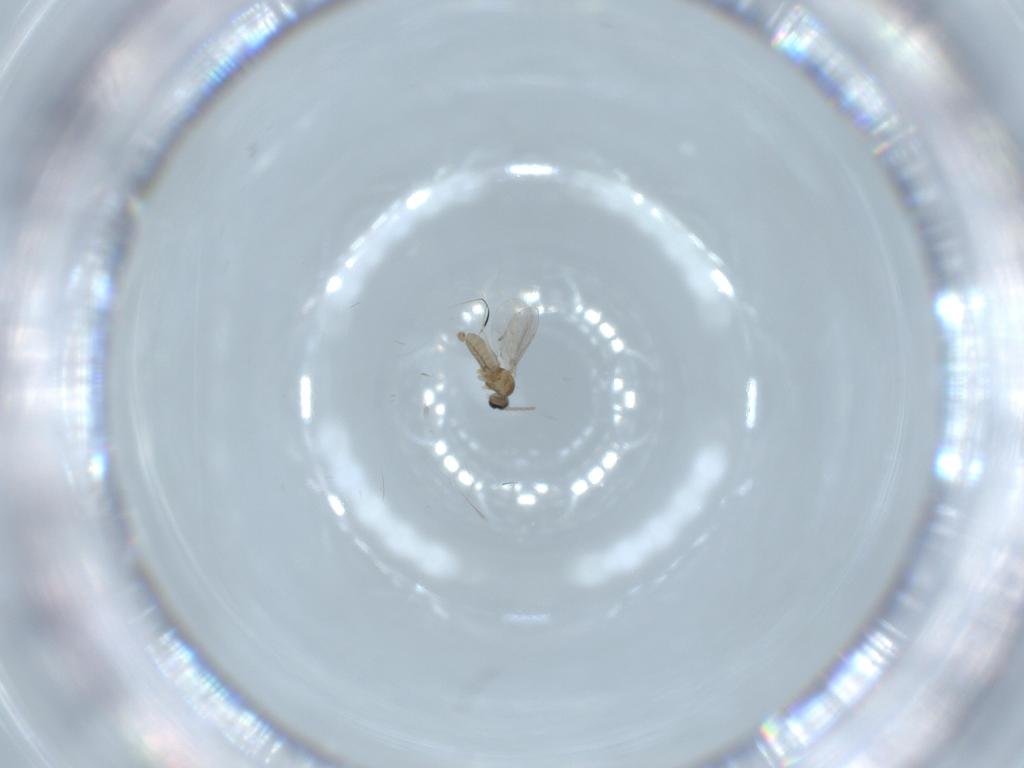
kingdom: Animalia
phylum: Arthropoda
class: Insecta
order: Diptera
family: Cecidomyiidae
